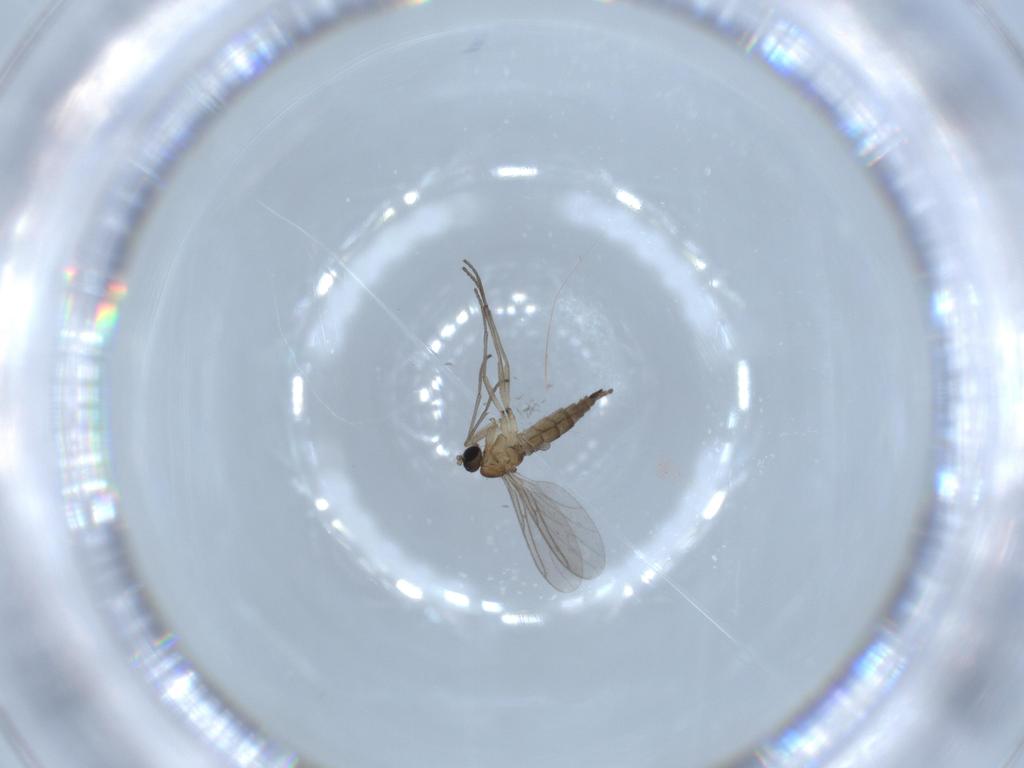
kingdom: Animalia
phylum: Arthropoda
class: Insecta
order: Diptera
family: Sciaridae
